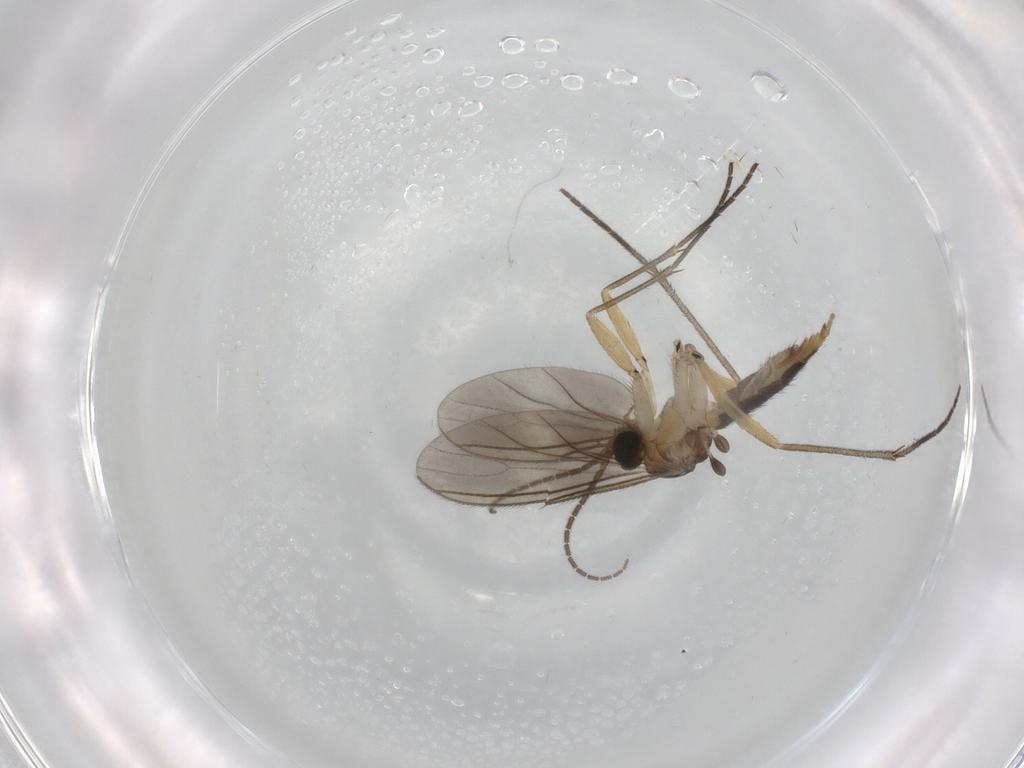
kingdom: Animalia
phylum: Arthropoda
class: Insecta
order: Diptera
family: Sciaridae
